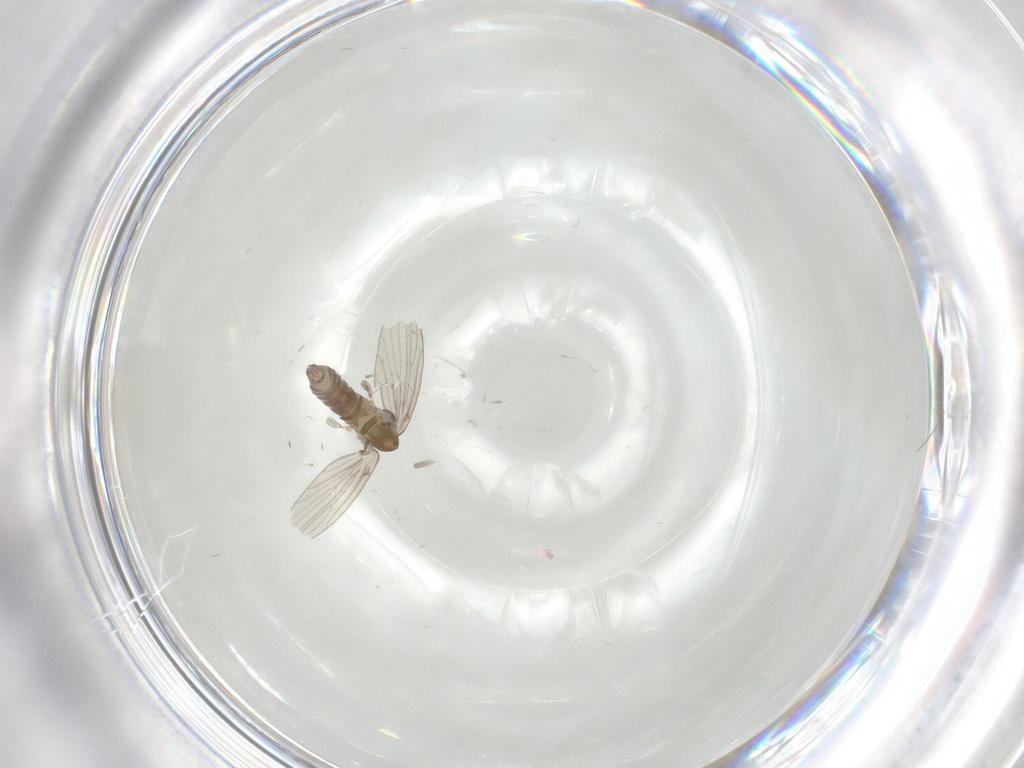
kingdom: Animalia
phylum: Arthropoda
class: Insecta
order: Diptera
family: Psychodidae
